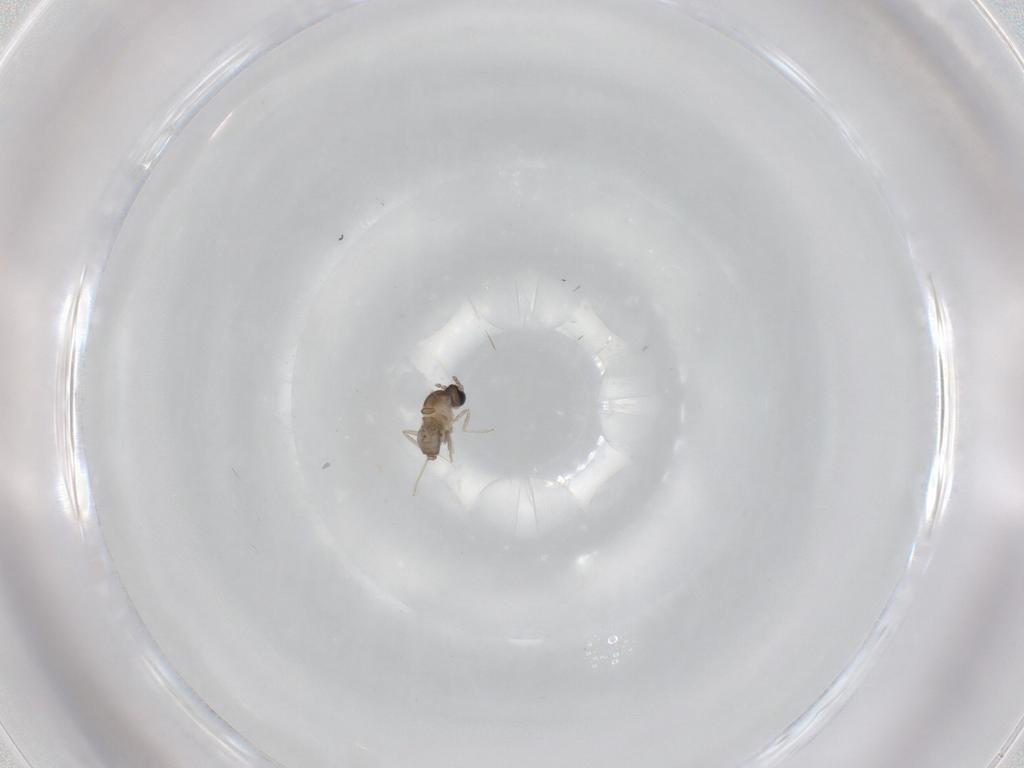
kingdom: Animalia
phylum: Arthropoda
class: Insecta
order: Diptera
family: Cecidomyiidae
